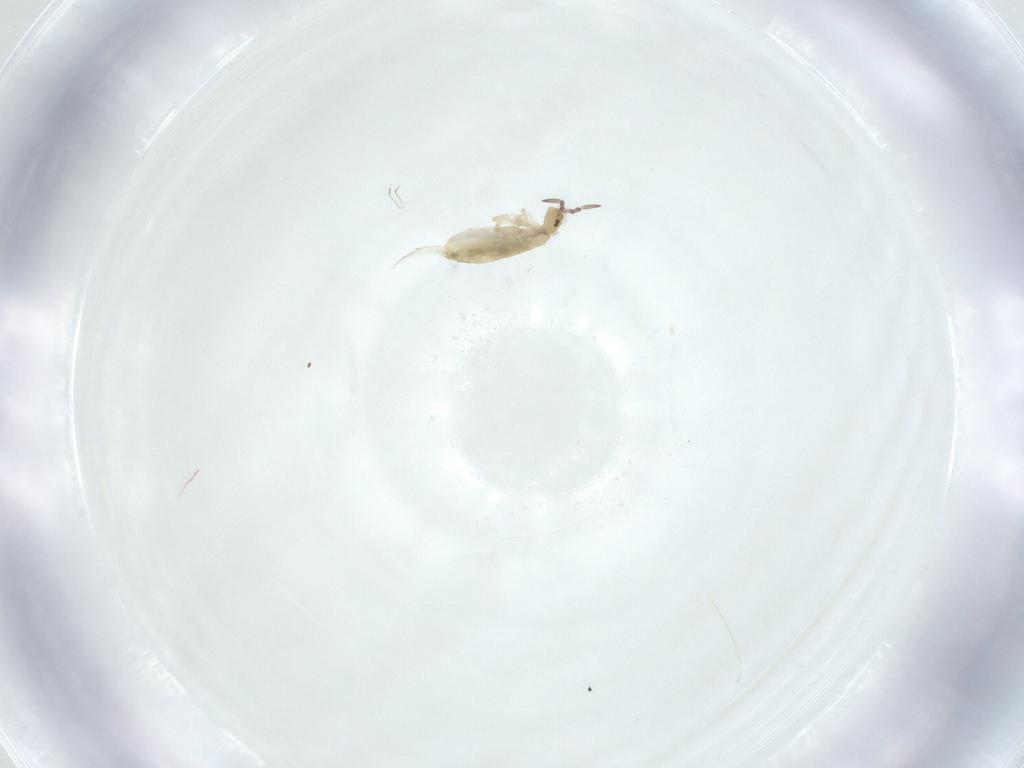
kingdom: Animalia
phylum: Arthropoda
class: Collembola
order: Entomobryomorpha
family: Entomobryidae
